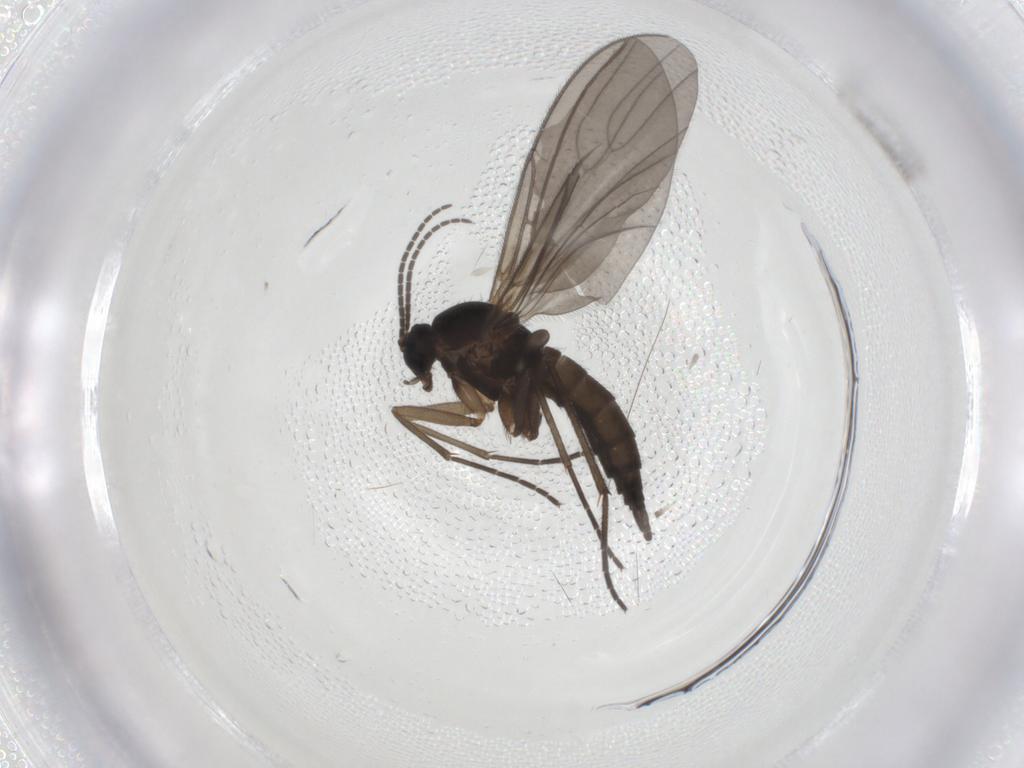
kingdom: Animalia
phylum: Arthropoda
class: Insecta
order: Diptera
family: Sciaridae
